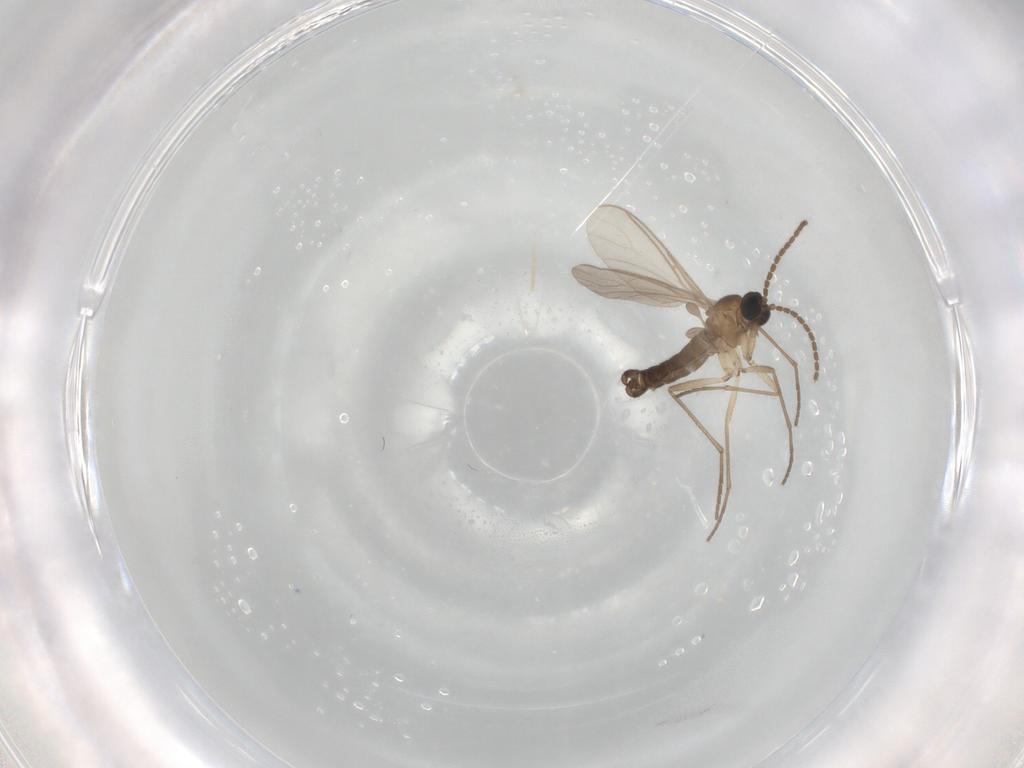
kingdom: Animalia
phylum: Arthropoda
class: Insecta
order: Diptera
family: Sciaridae
